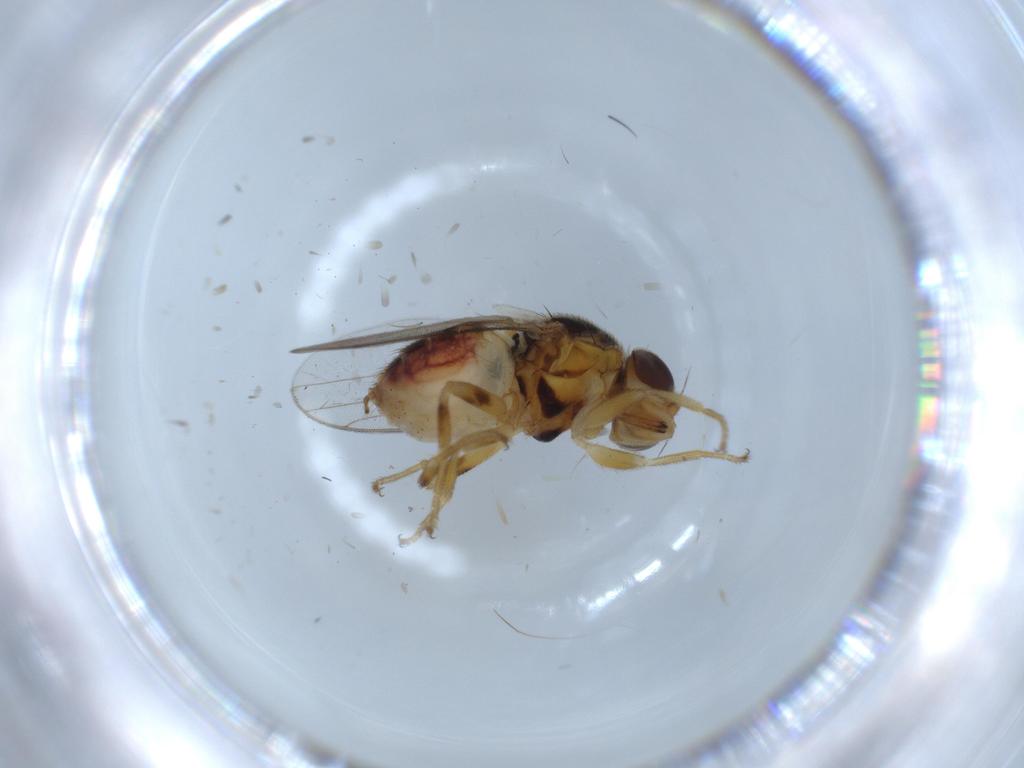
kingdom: Animalia
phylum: Arthropoda
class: Insecta
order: Diptera
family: Chloropidae
